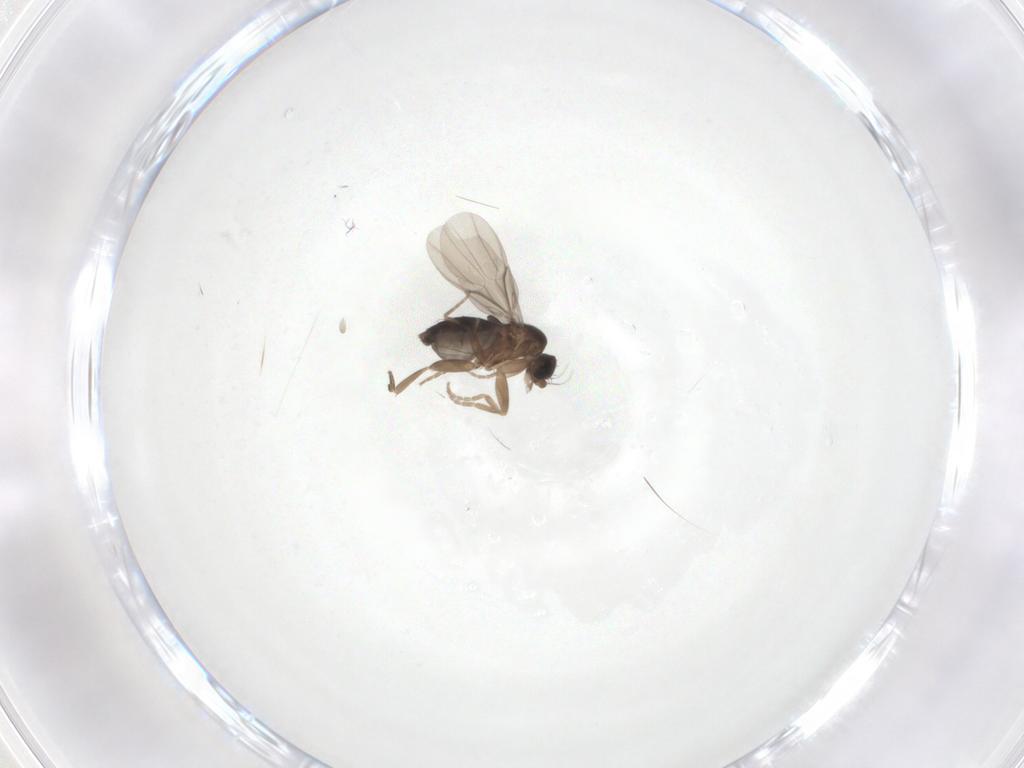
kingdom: Animalia
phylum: Arthropoda
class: Insecta
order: Diptera
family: Phoridae
